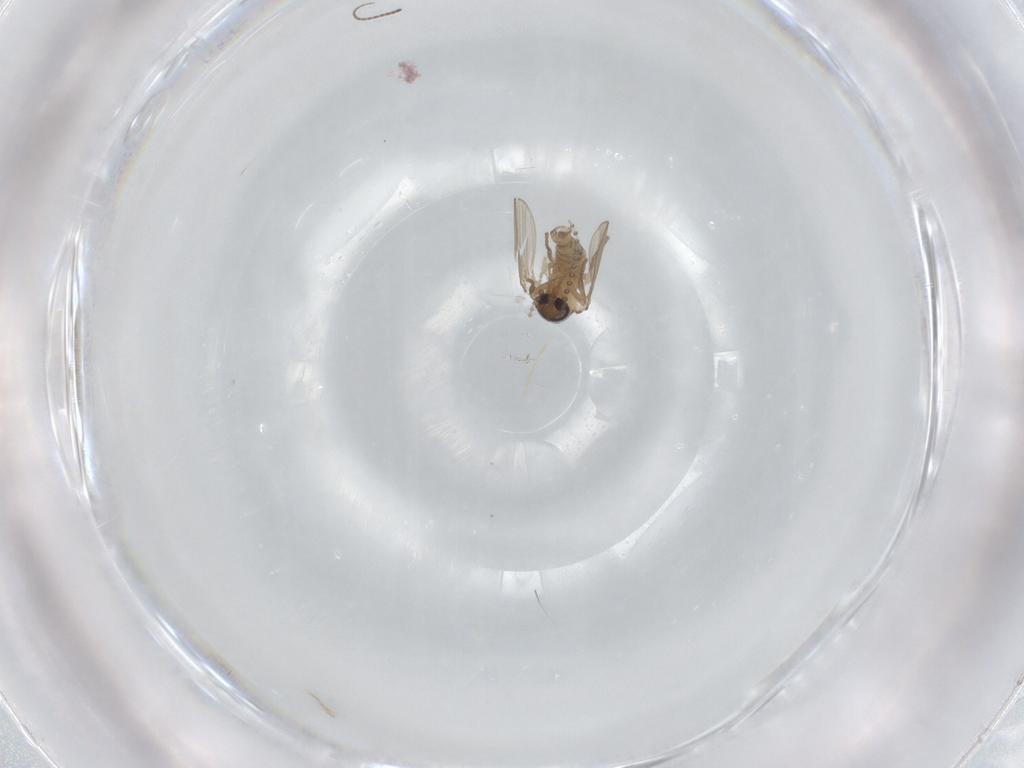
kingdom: Animalia
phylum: Arthropoda
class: Insecta
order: Diptera
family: Psychodidae
